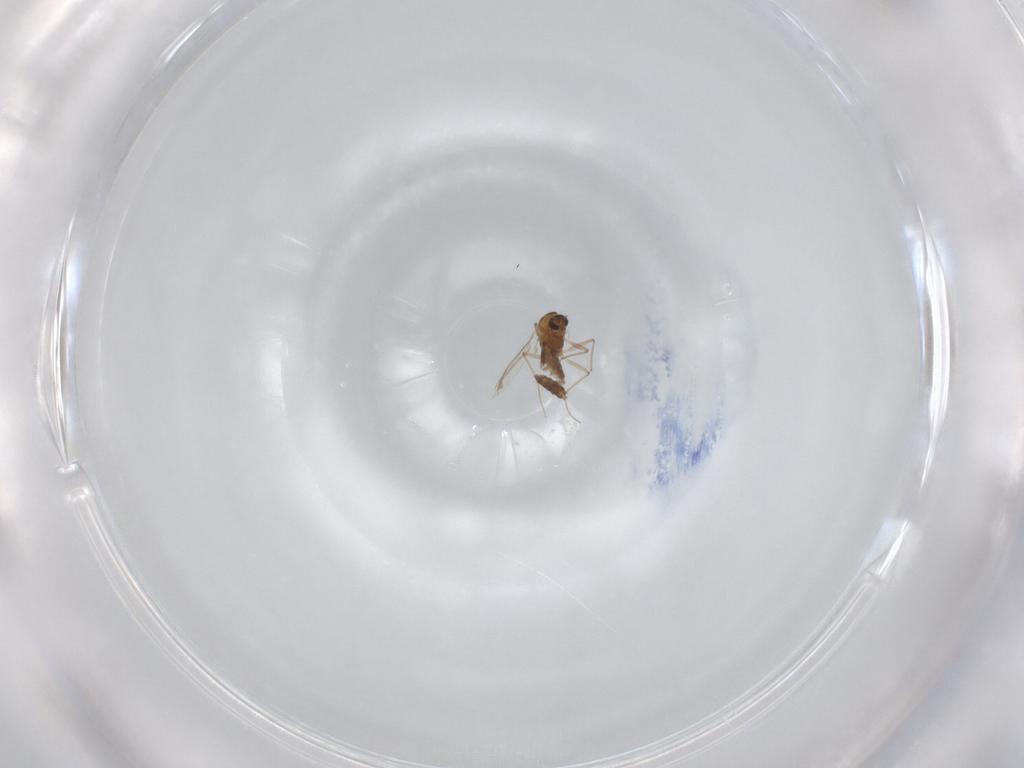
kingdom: Animalia
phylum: Arthropoda
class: Insecta
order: Diptera
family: Chironomidae
